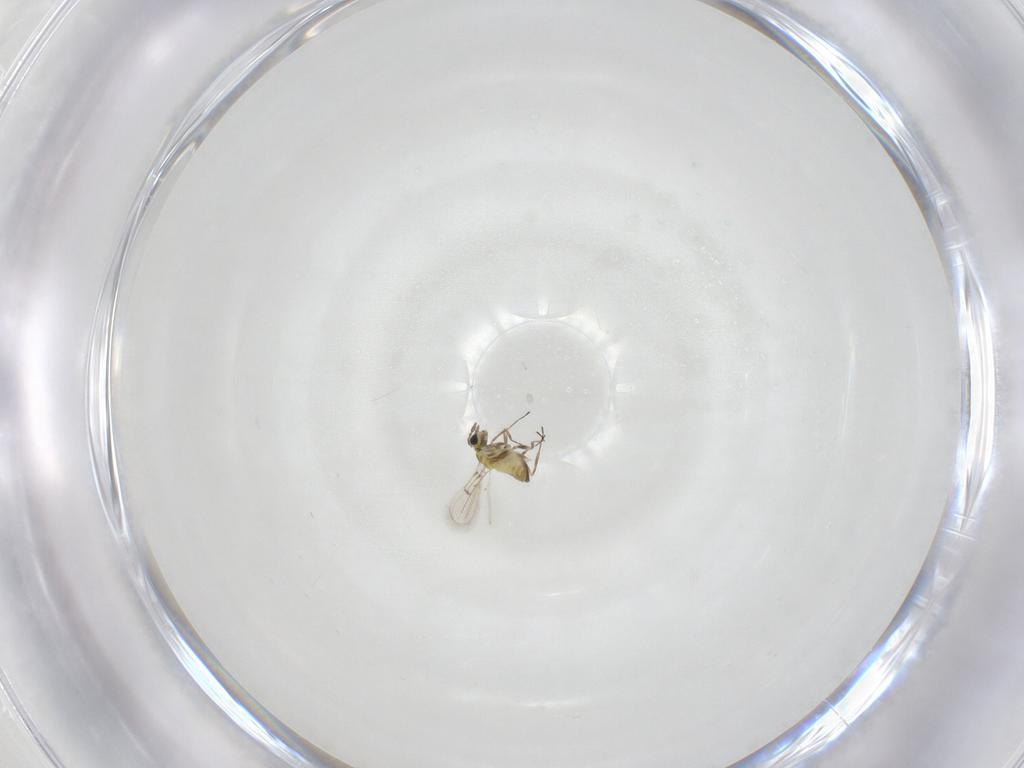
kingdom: Animalia
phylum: Arthropoda
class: Insecta
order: Hymenoptera
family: Trichogrammatidae
